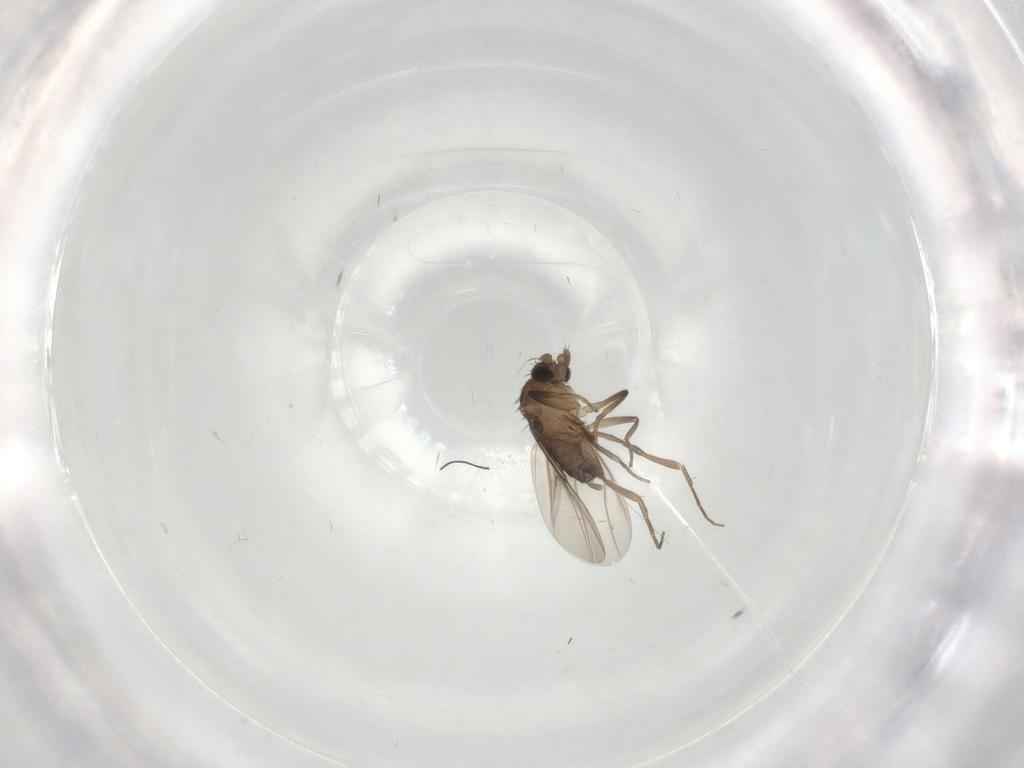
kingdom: Animalia
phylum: Arthropoda
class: Insecta
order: Diptera
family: Phoridae
